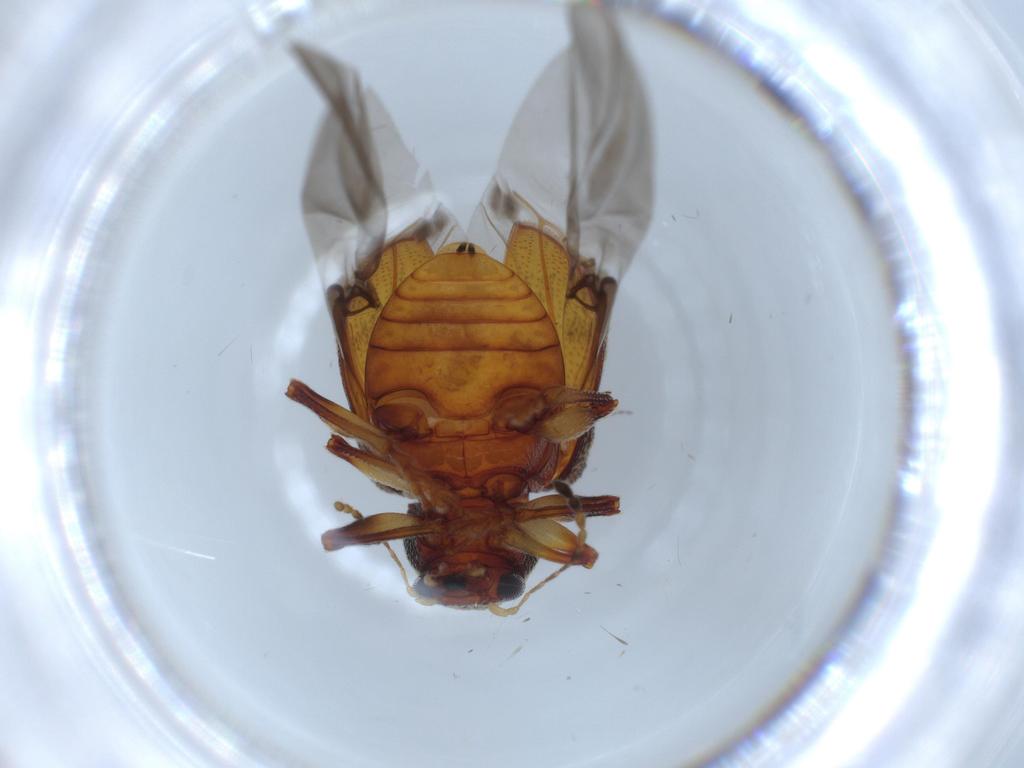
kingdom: Animalia
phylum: Arthropoda
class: Insecta
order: Coleoptera
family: Chrysomelidae
